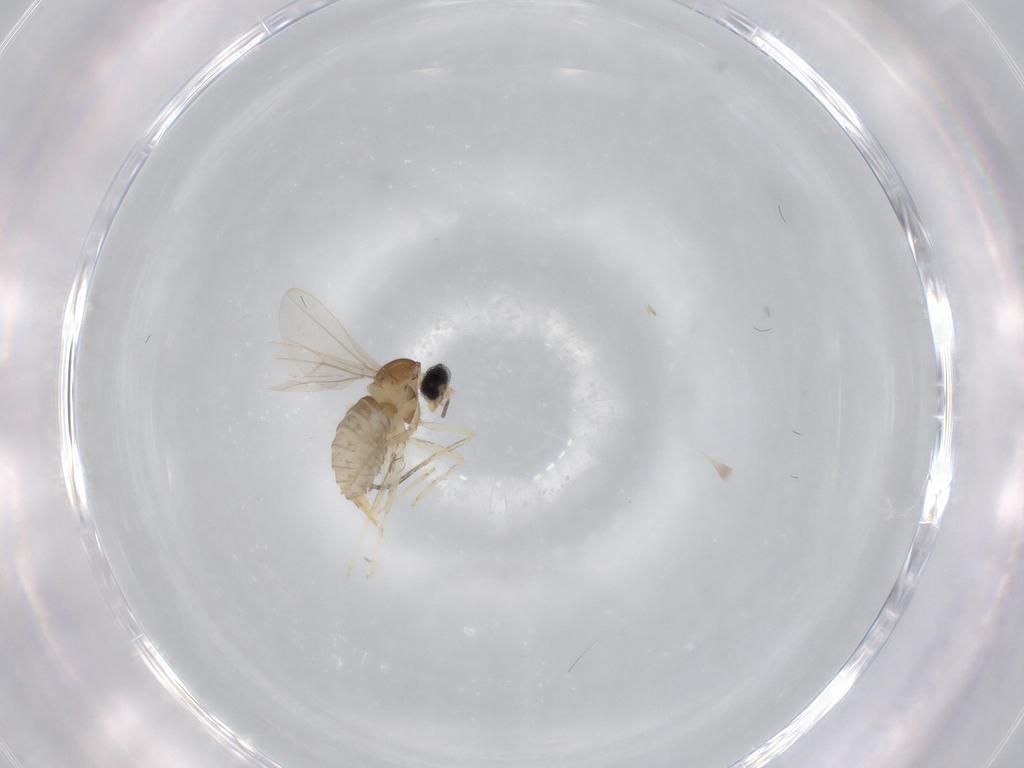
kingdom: Animalia
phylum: Arthropoda
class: Insecta
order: Diptera
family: Cecidomyiidae
